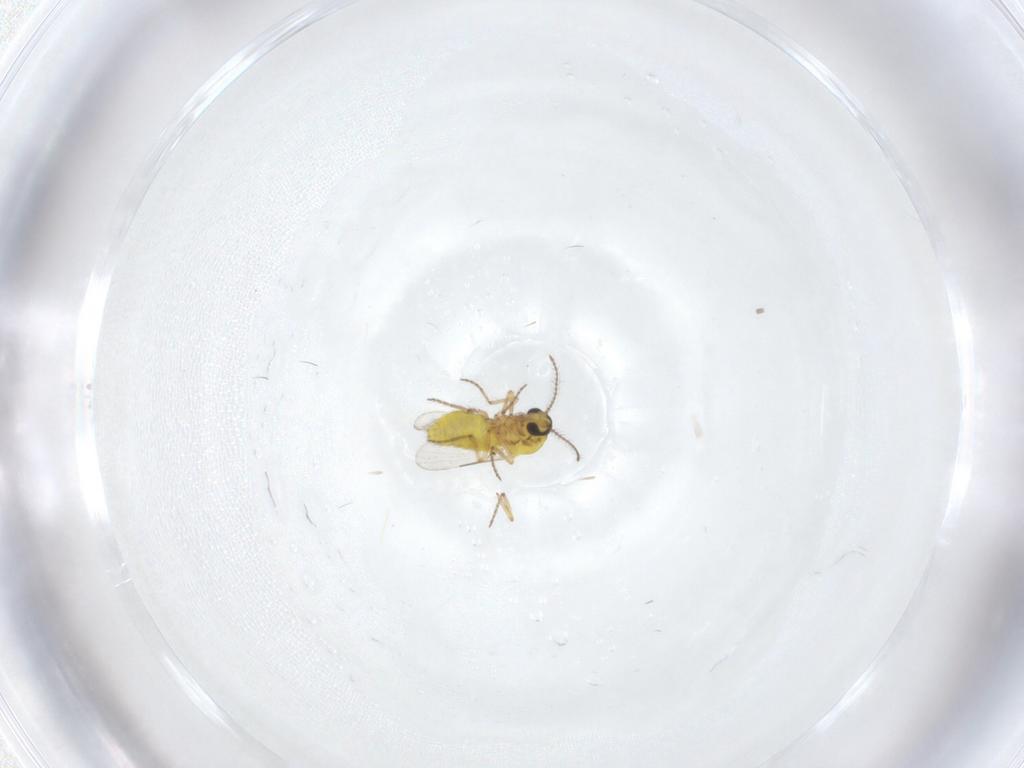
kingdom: Animalia
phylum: Arthropoda
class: Insecta
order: Diptera
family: Ceratopogonidae
